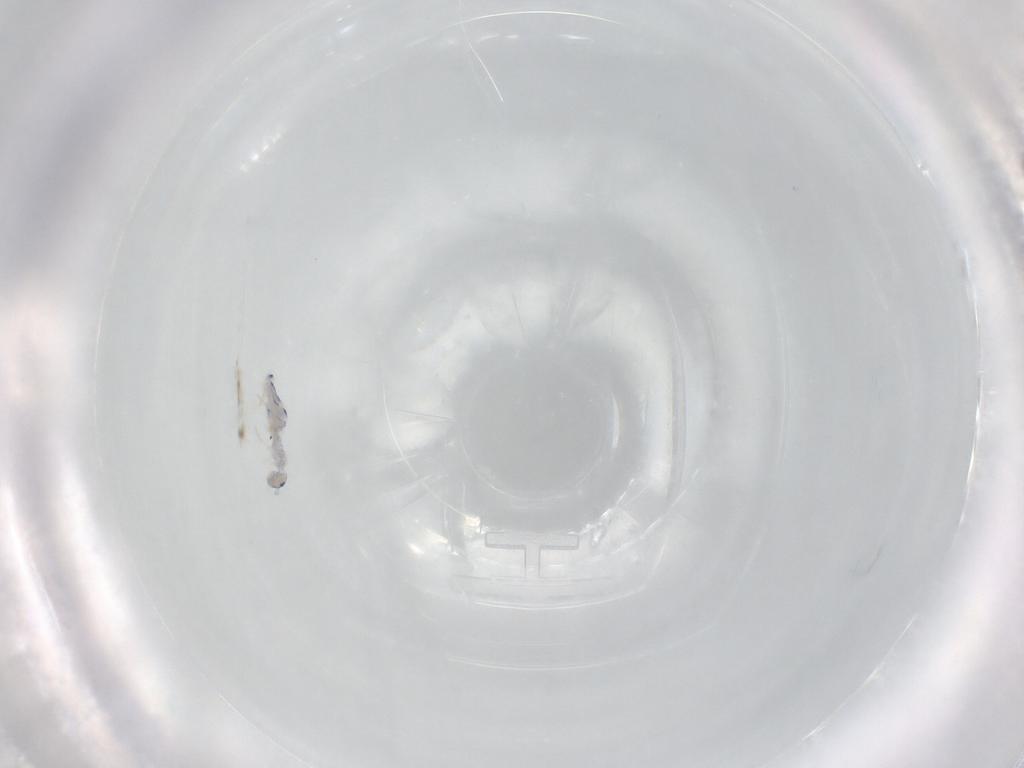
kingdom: Animalia
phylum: Arthropoda
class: Collembola
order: Entomobryomorpha
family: Entomobryidae
